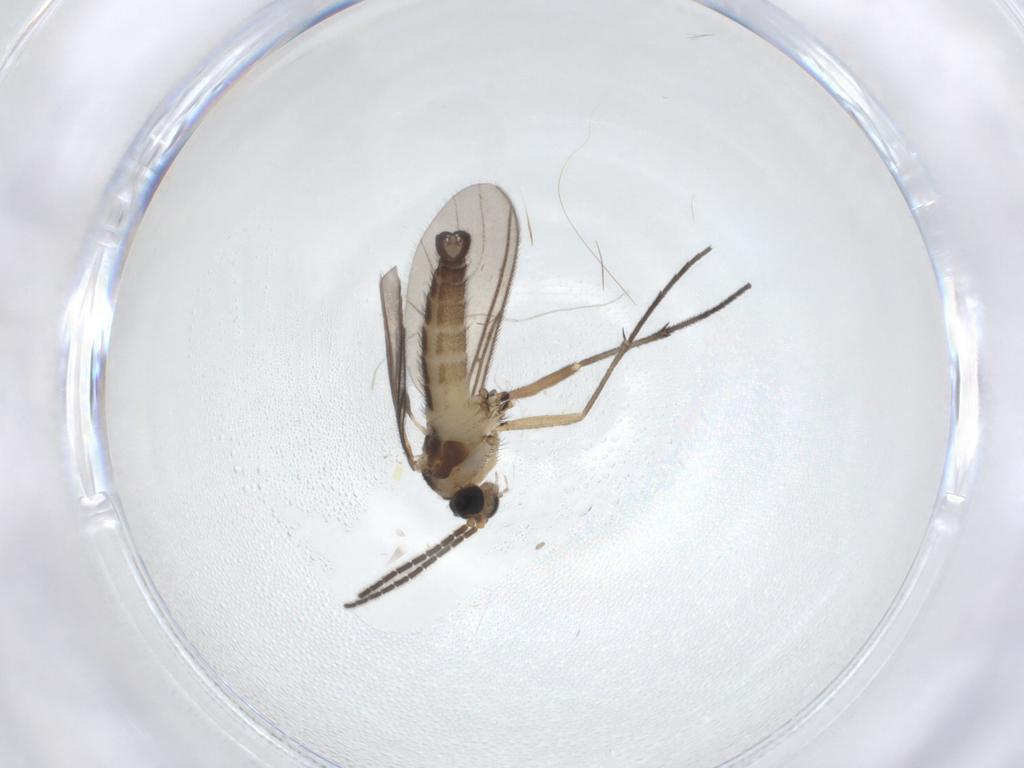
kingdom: Animalia
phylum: Arthropoda
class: Insecta
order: Diptera
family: Sciaridae
